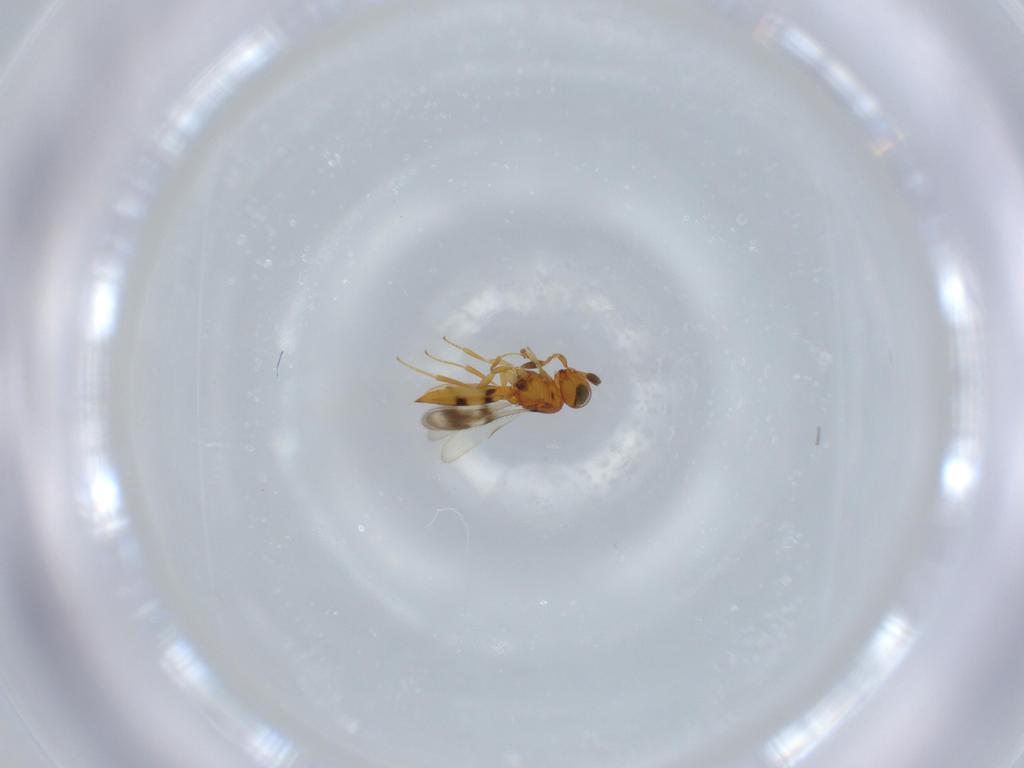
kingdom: Animalia
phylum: Arthropoda
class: Insecta
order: Hymenoptera
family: Scelionidae
